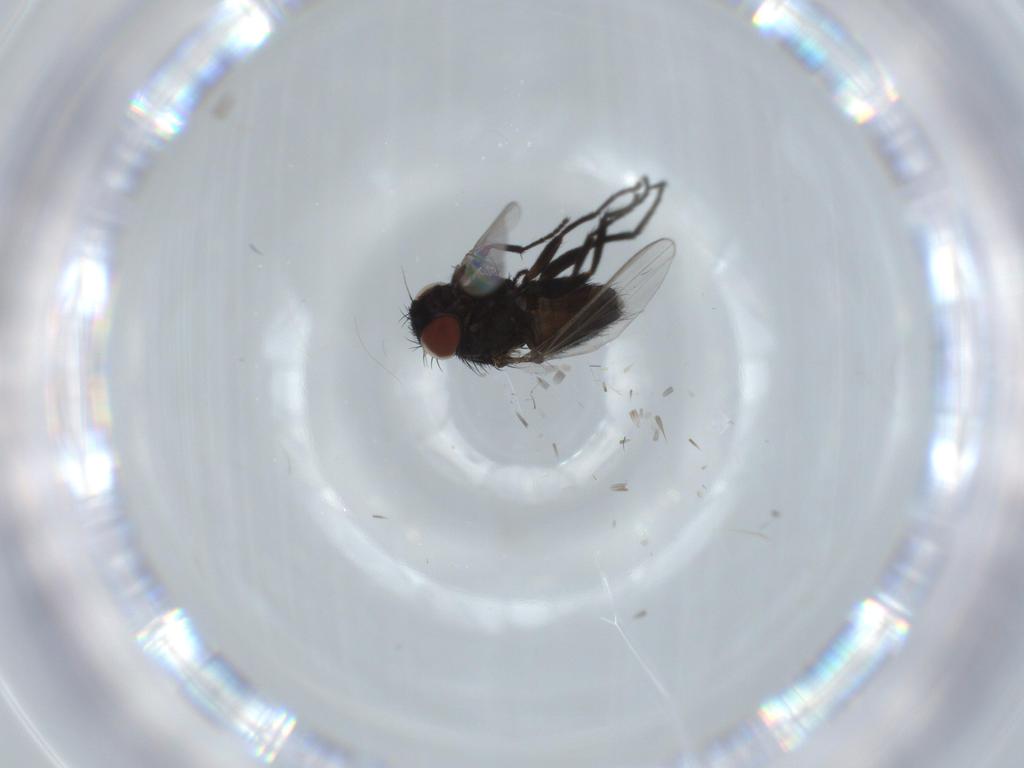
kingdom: Animalia
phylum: Arthropoda
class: Insecta
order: Diptera
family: Milichiidae
